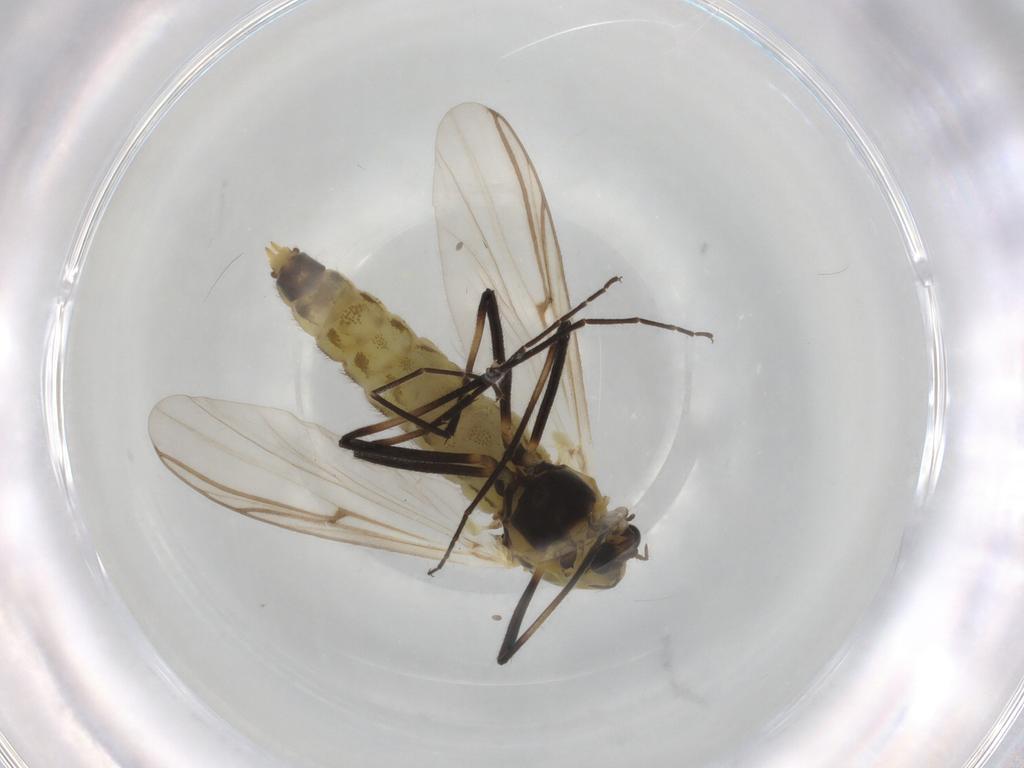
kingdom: Animalia
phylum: Arthropoda
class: Insecta
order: Diptera
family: Chironomidae
